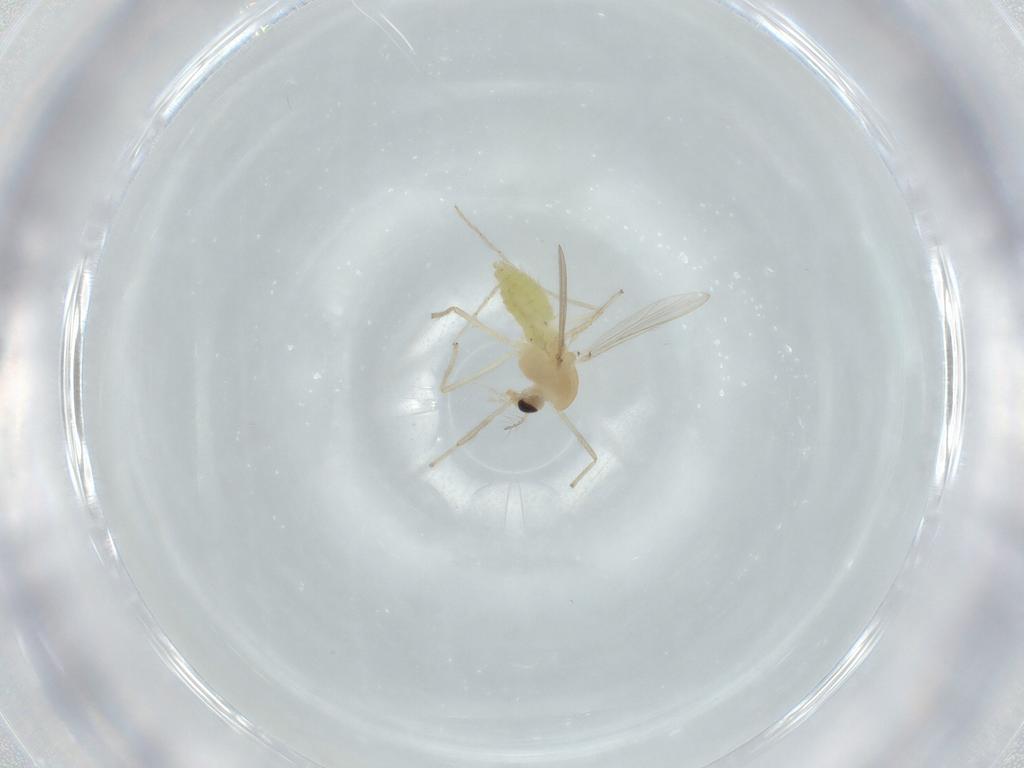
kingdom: Animalia
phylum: Arthropoda
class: Insecta
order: Diptera
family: Chironomidae
